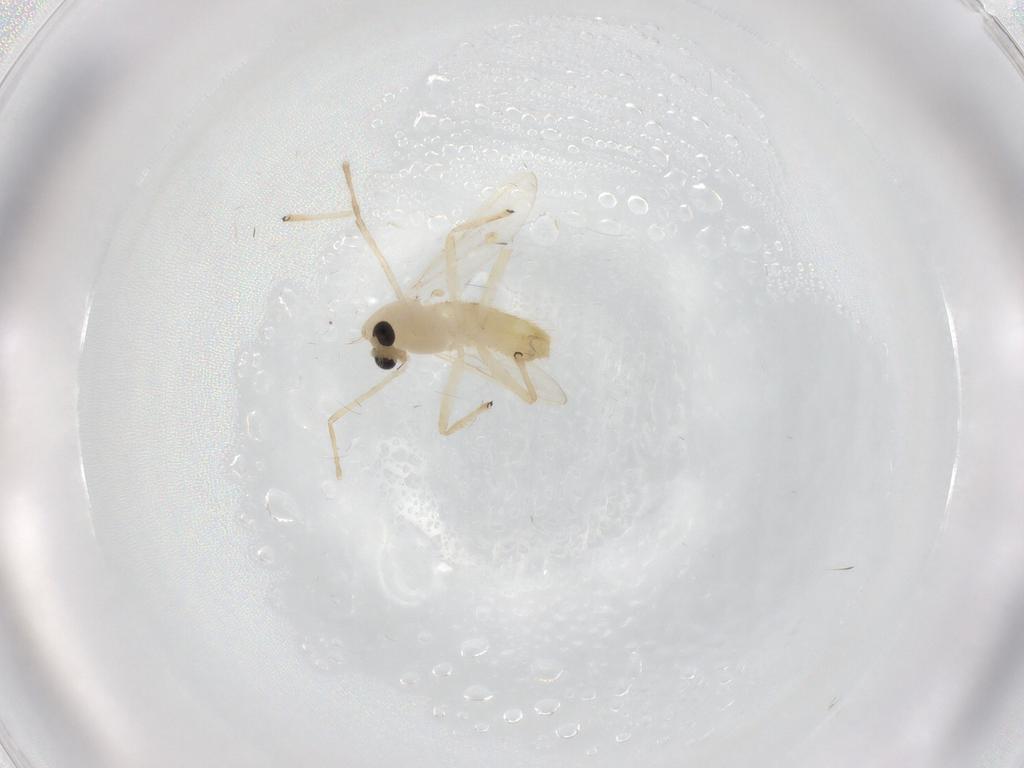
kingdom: Animalia
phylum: Arthropoda
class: Insecta
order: Diptera
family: Chironomidae
